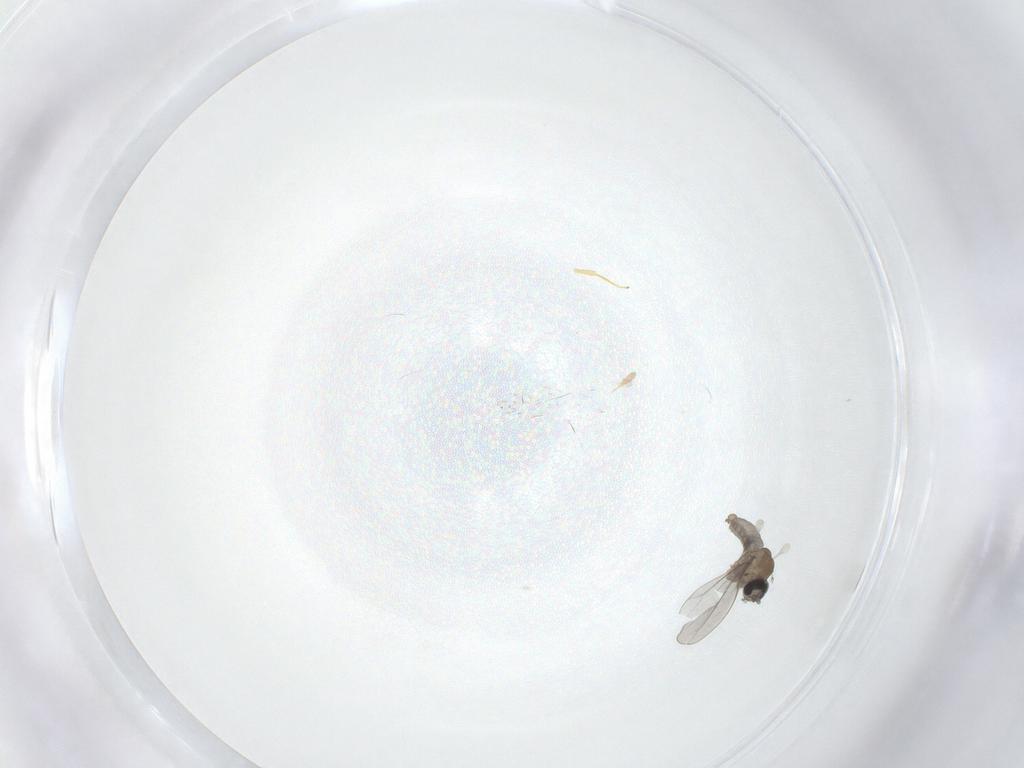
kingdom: Animalia
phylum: Arthropoda
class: Insecta
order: Diptera
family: Cecidomyiidae
